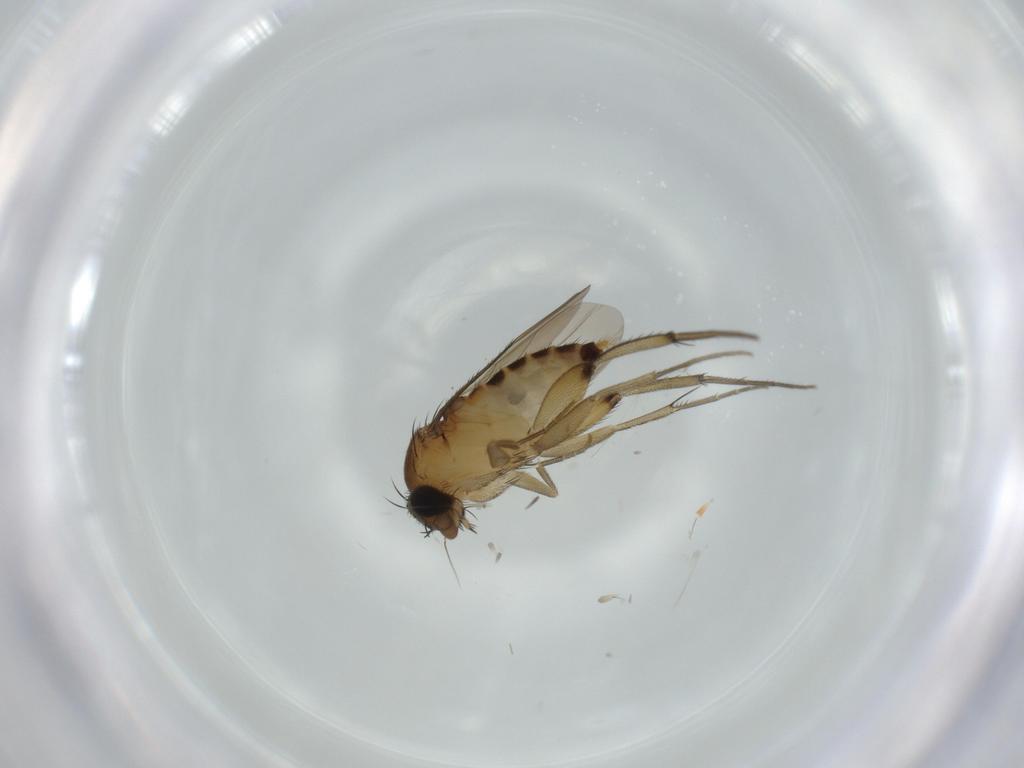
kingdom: Animalia
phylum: Arthropoda
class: Insecta
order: Diptera
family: Phoridae
